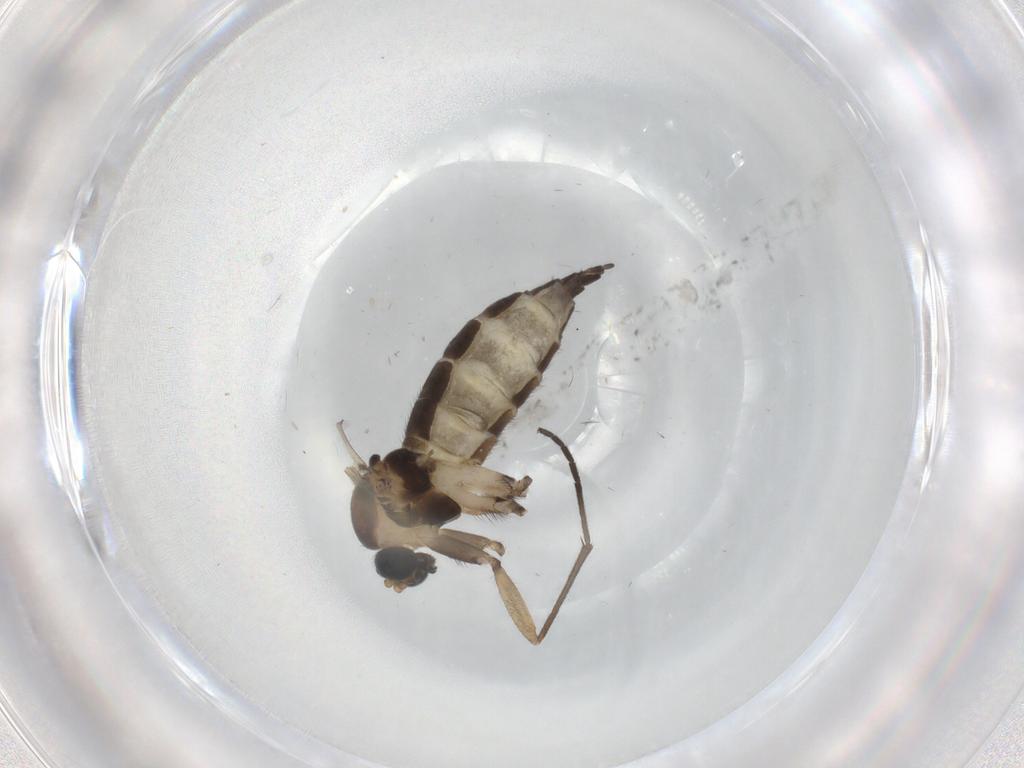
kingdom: Animalia
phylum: Arthropoda
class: Insecta
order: Diptera
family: Sciaridae
